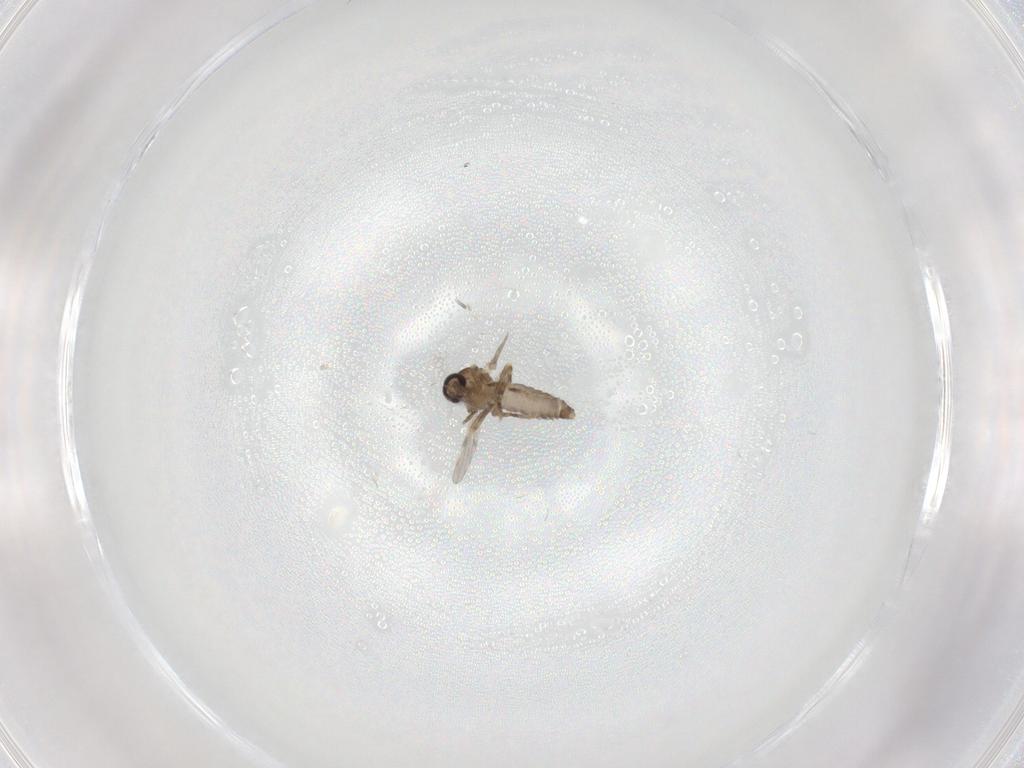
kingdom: Animalia
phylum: Arthropoda
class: Insecta
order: Diptera
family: Ceratopogonidae
